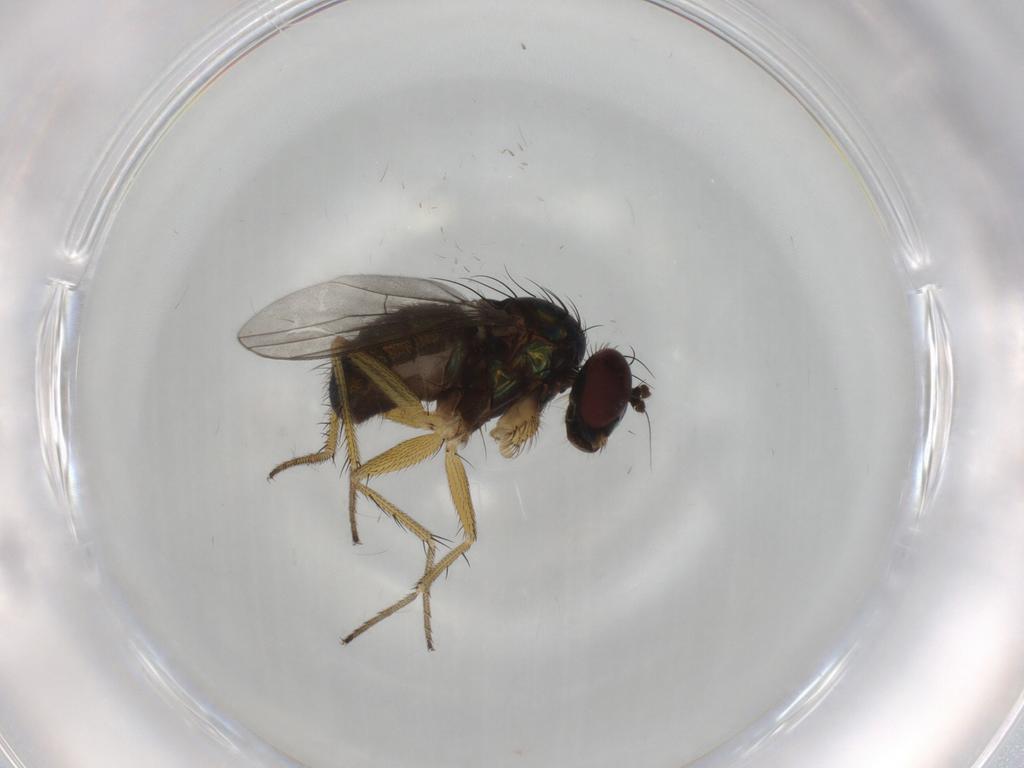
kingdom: Animalia
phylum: Arthropoda
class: Insecta
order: Diptera
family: Dolichopodidae
